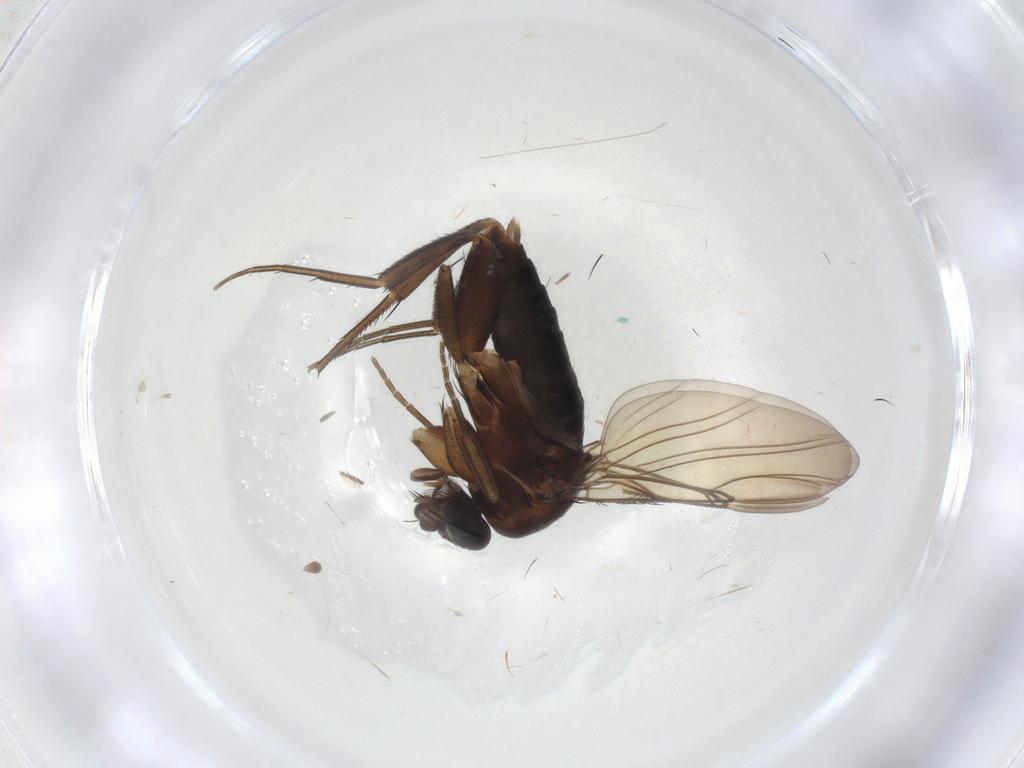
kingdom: Animalia
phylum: Arthropoda
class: Insecta
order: Diptera
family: Phoridae
